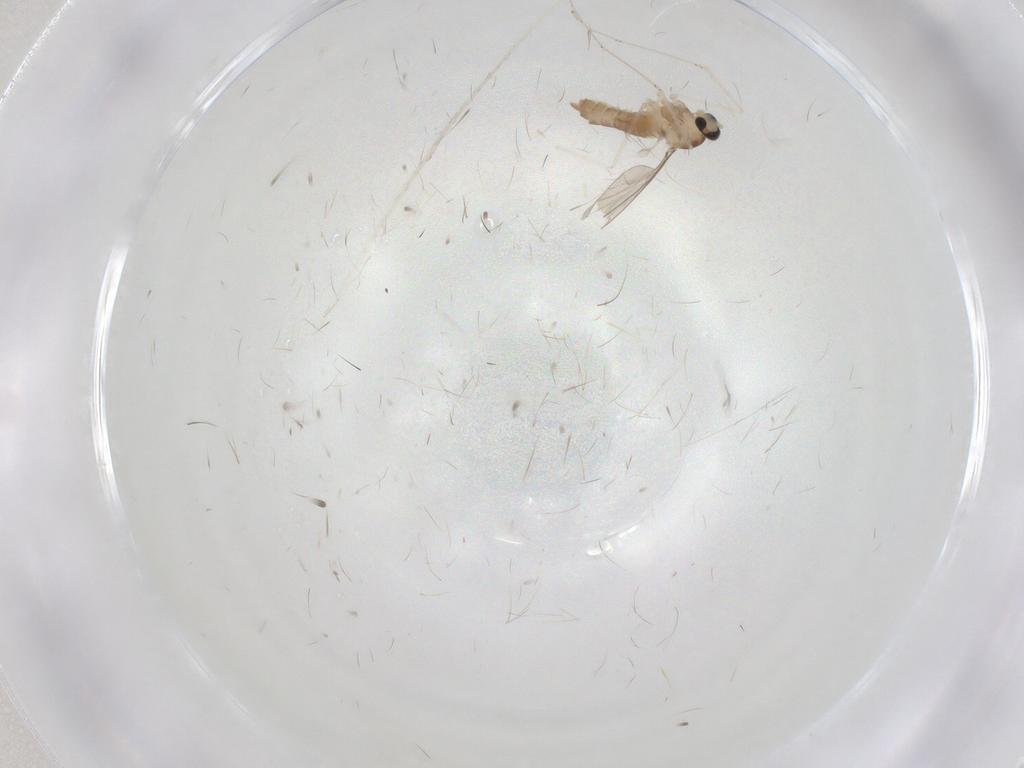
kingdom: Animalia
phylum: Arthropoda
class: Insecta
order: Diptera
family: Cecidomyiidae
